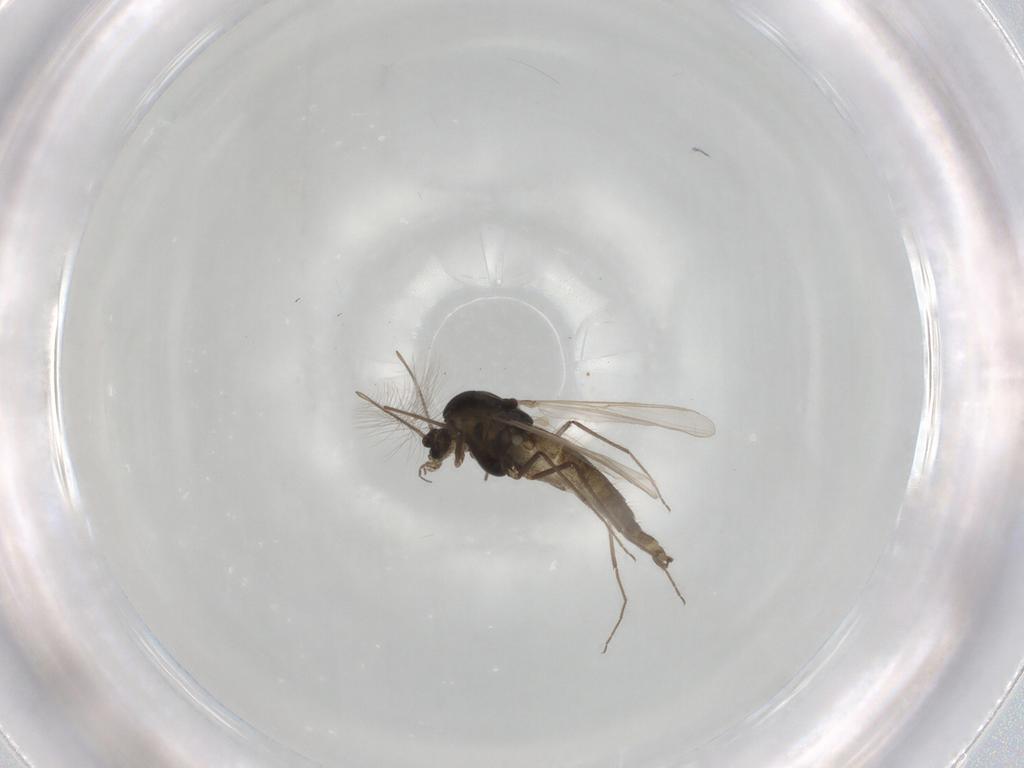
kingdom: Animalia
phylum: Arthropoda
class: Insecta
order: Diptera
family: Chironomidae
